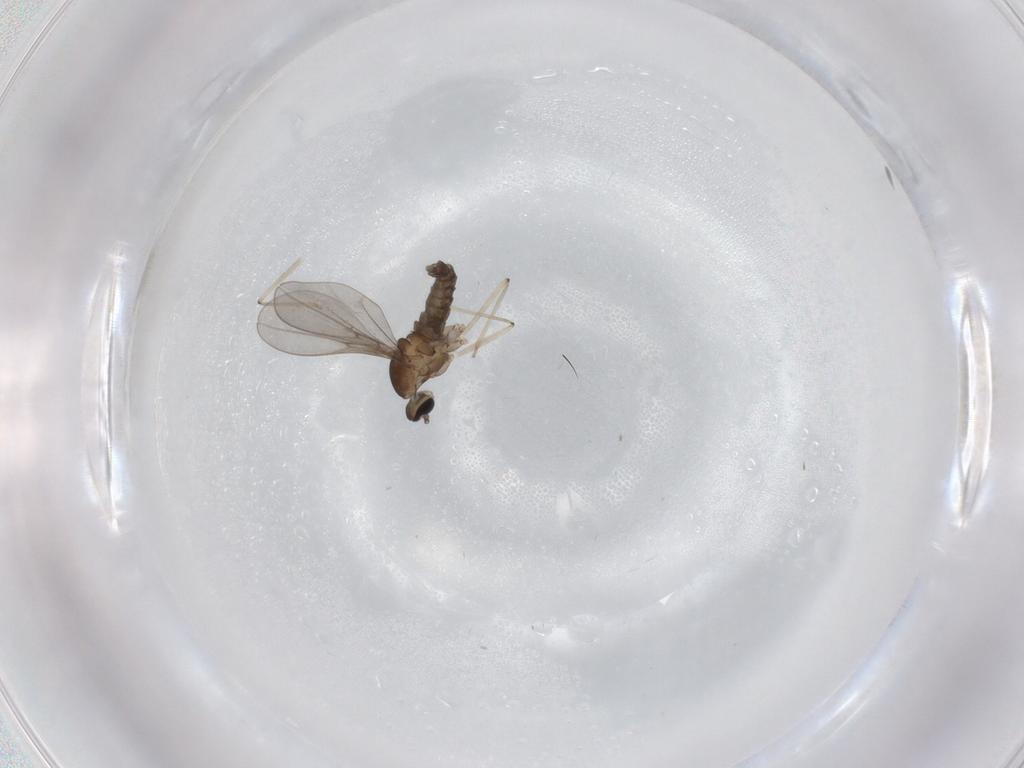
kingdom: Animalia
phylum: Arthropoda
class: Insecta
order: Diptera
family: Cecidomyiidae
